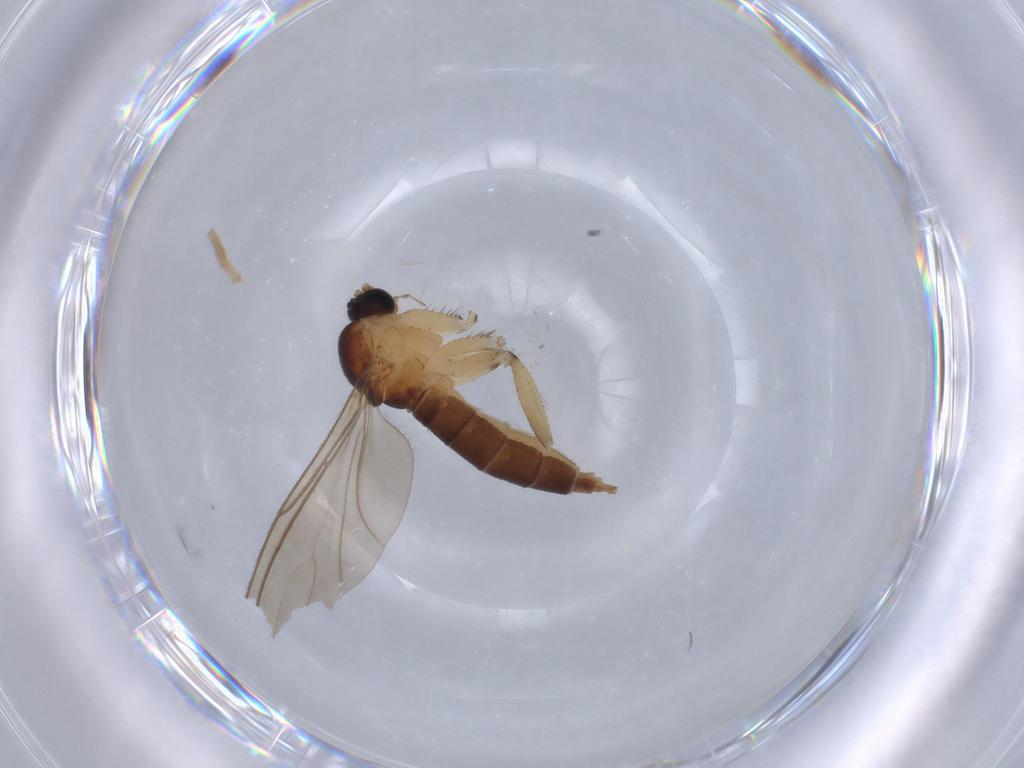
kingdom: Animalia
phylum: Arthropoda
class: Insecta
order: Diptera
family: Sciaridae
